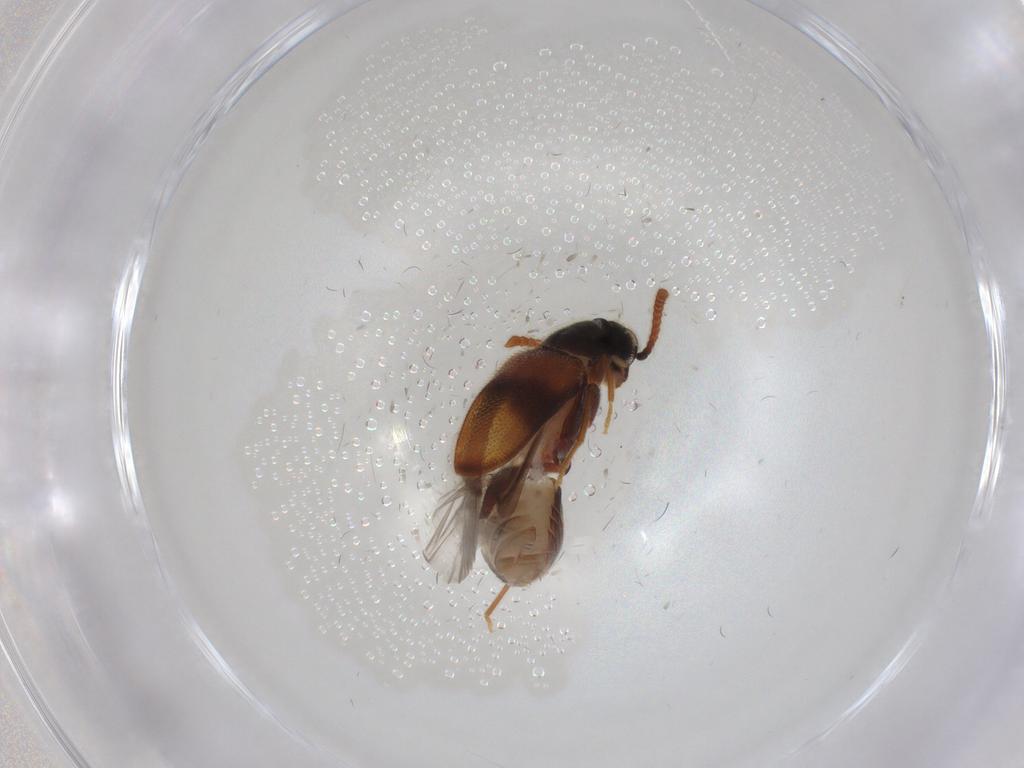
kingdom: Animalia
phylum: Arthropoda
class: Insecta
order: Coleoptera
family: Aderidae
